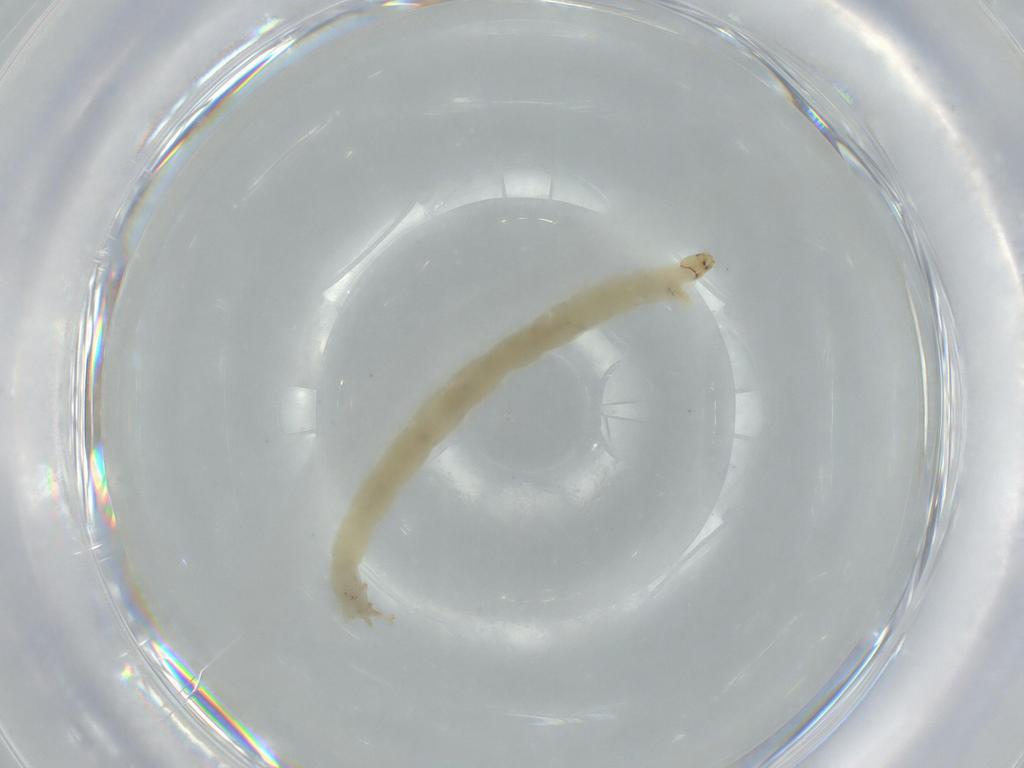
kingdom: Animalia
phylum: Arthropoda
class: Insecta
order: Diptera
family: Chironomidae
